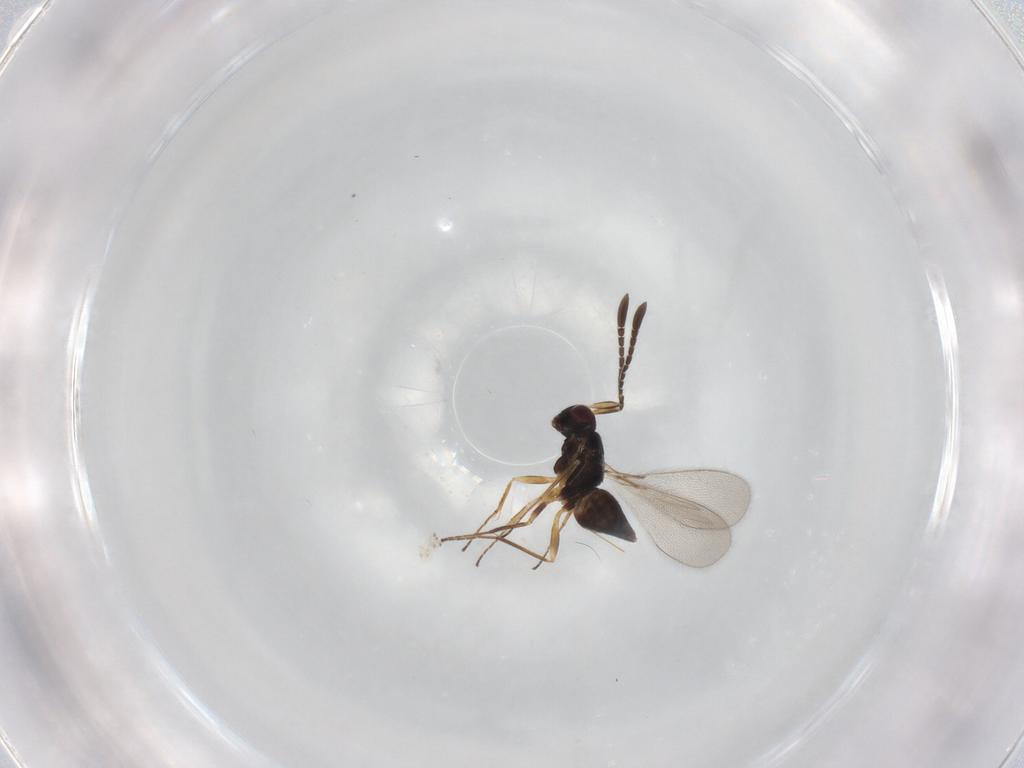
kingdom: Animalia
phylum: Arthropoda
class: Insecta
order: Hymenoptera
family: Mymaridae
